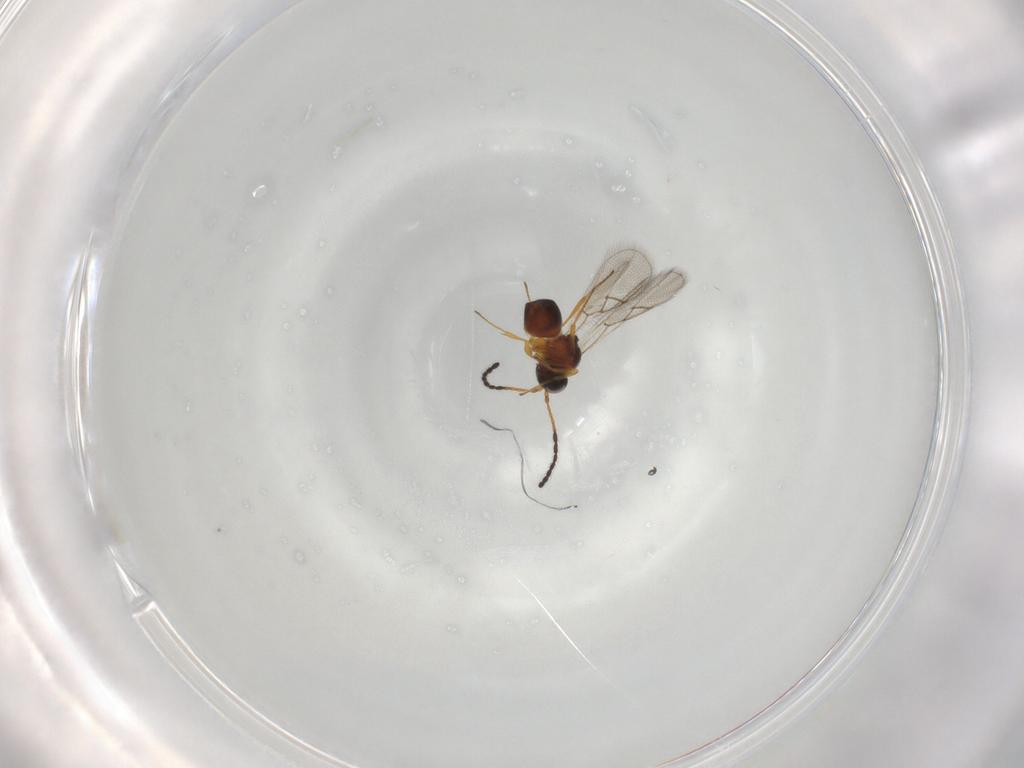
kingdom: Animalia
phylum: Arthropoda
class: Insecta
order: Hymenoptera
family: Figitidae
